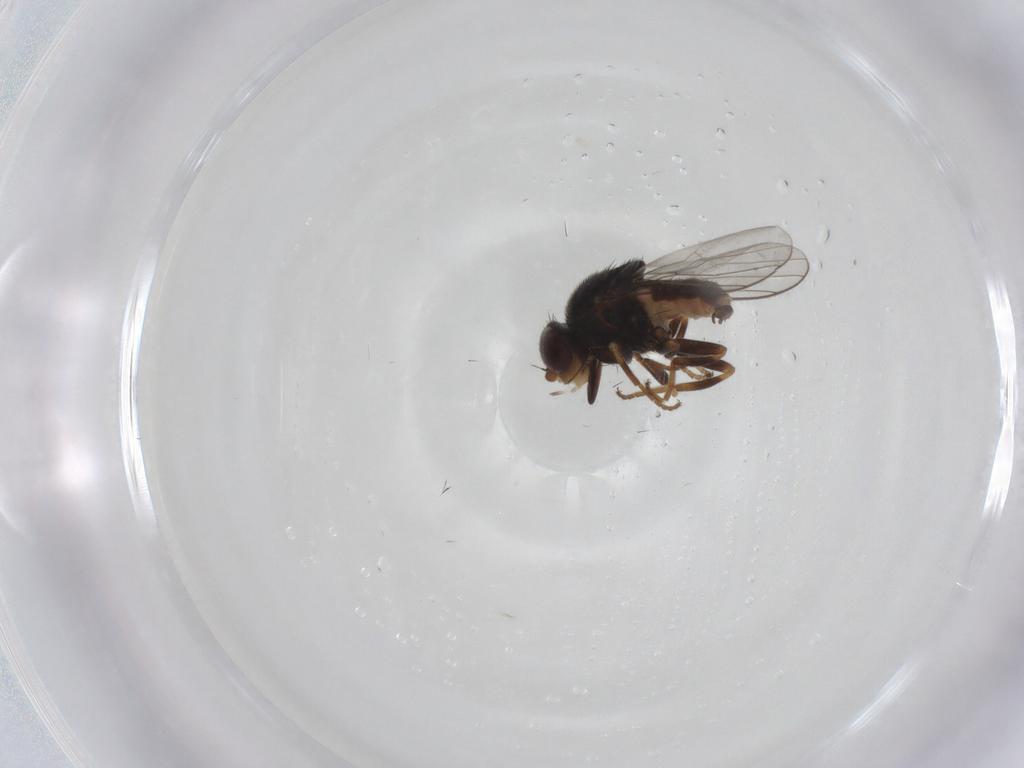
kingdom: Animalia
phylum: Arthropoda
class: Insecta
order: Diptera
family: Chloropidae
